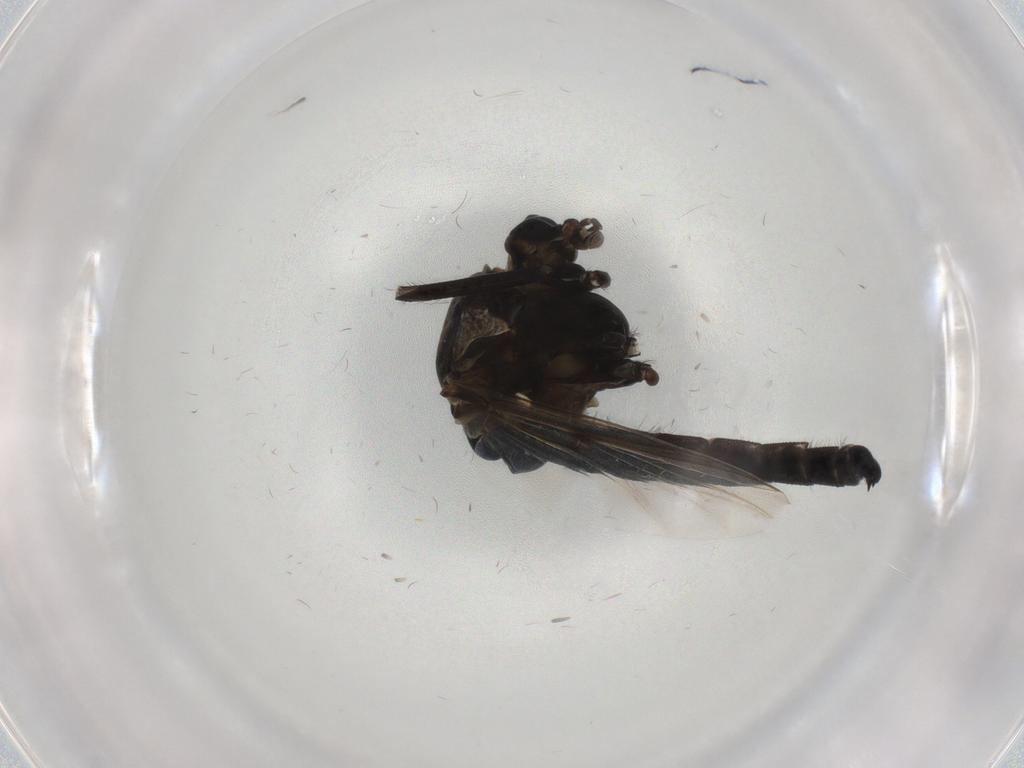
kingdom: Animalia
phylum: Arthropoda
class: Insecta
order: Diptera
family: Chironomidae
